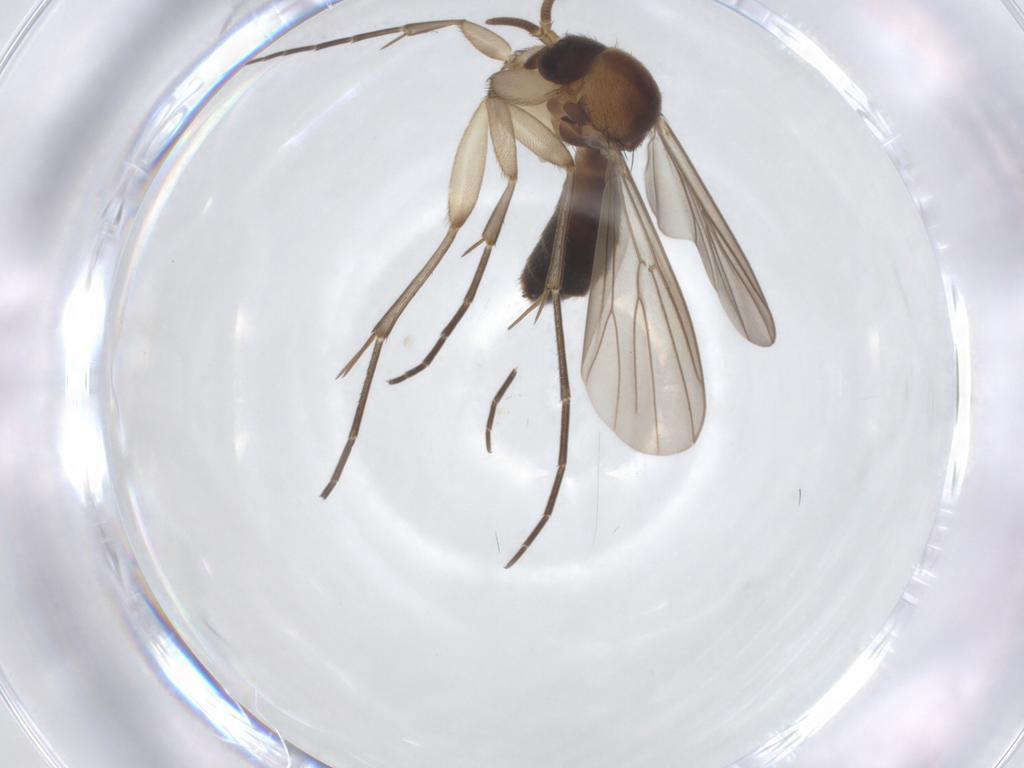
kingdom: Animalia
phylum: Arthropoda
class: Insecta
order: Diptera
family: Mycetophilidae
